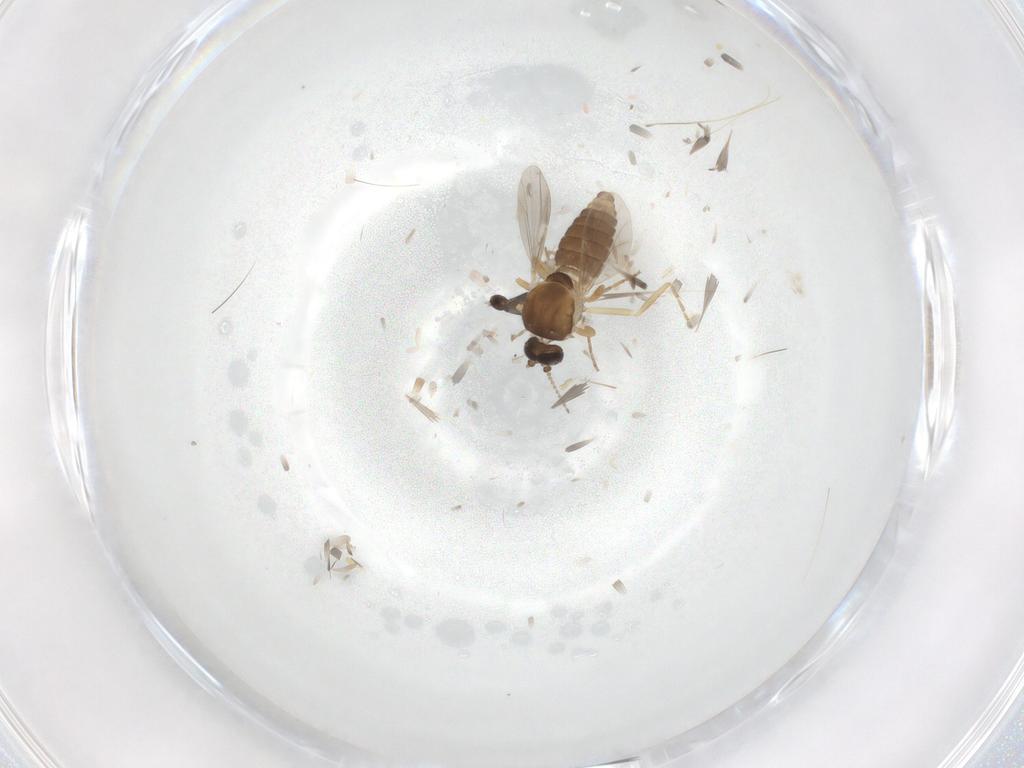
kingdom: Animalia
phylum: Arthropoda
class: Insecta
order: Diptera
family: Ceratopogonidae
